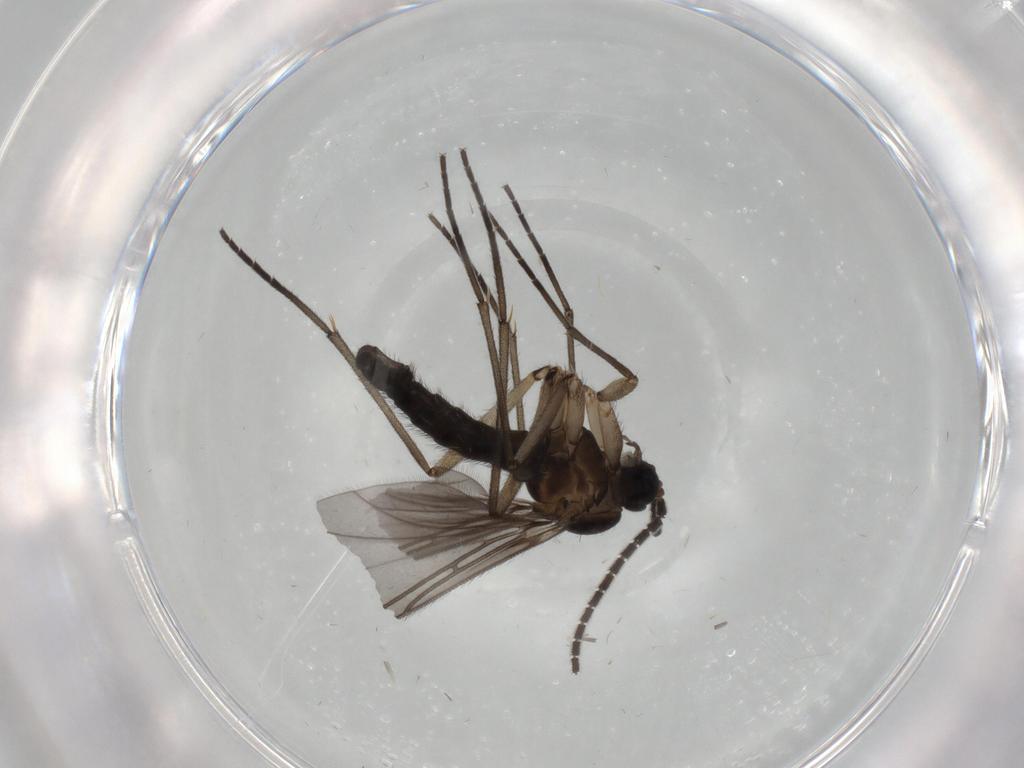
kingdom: Animalia
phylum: Arthropoda
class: Insecta
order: Diptera
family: Sciaridae
